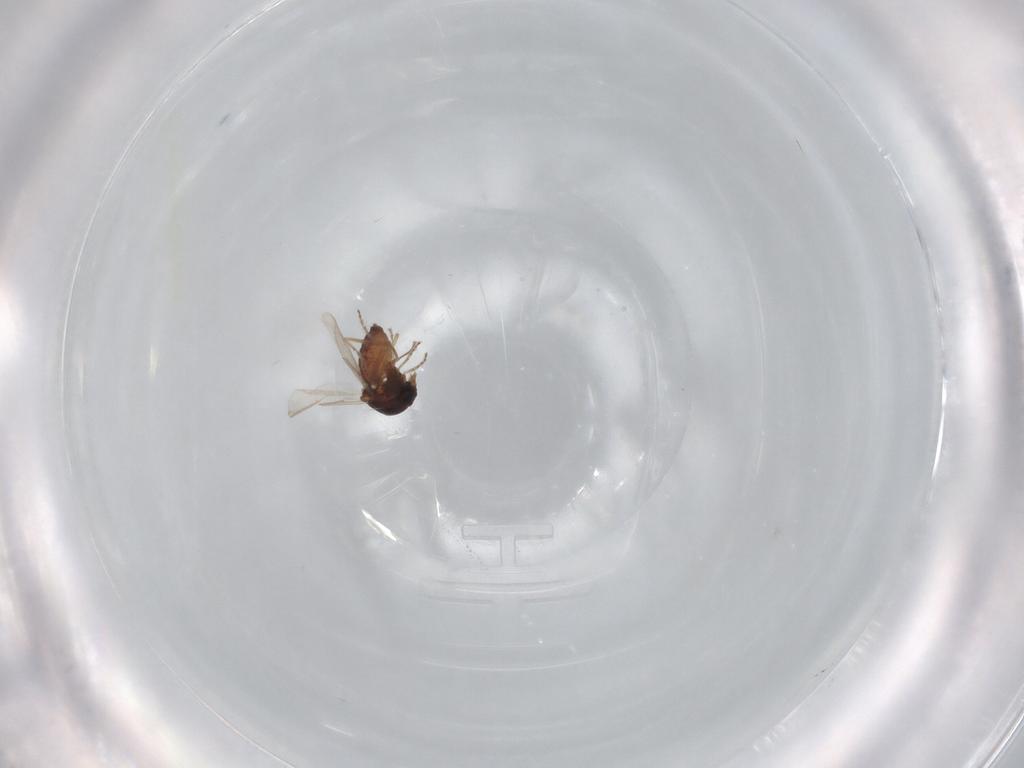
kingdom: Animalia
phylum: Arthropoda
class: Insecta
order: Diptera
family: Ceratopogonidae
